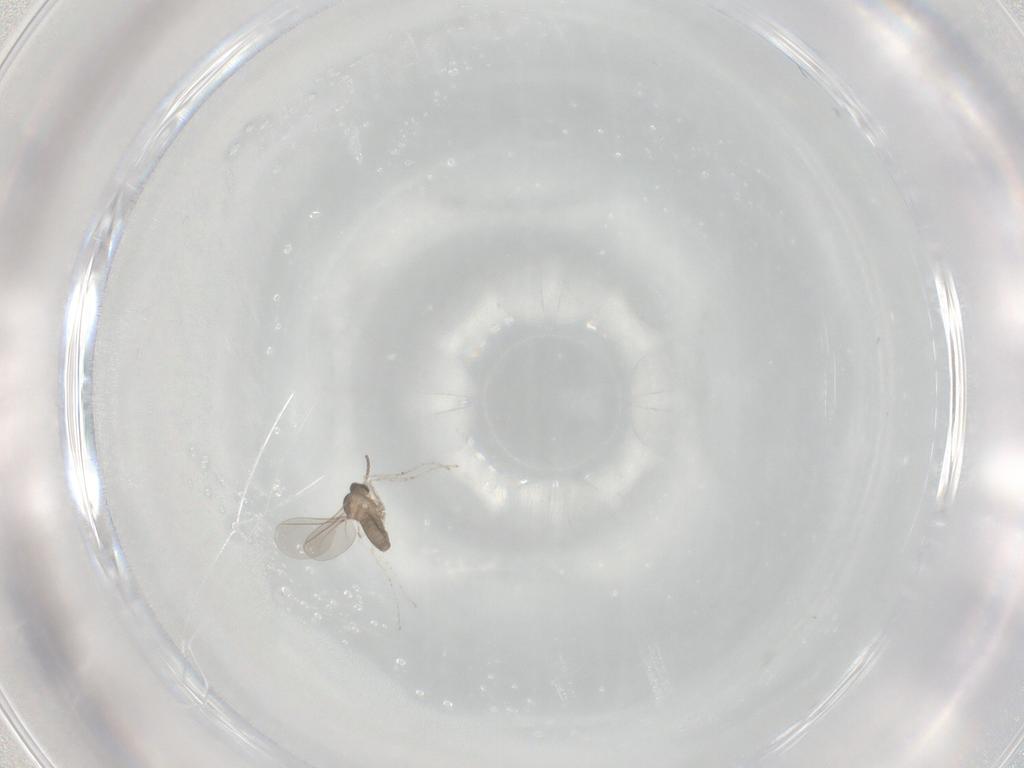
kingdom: Animalia
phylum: Arthropoda
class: Insecta
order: Diptera
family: Cecidomyiidae
